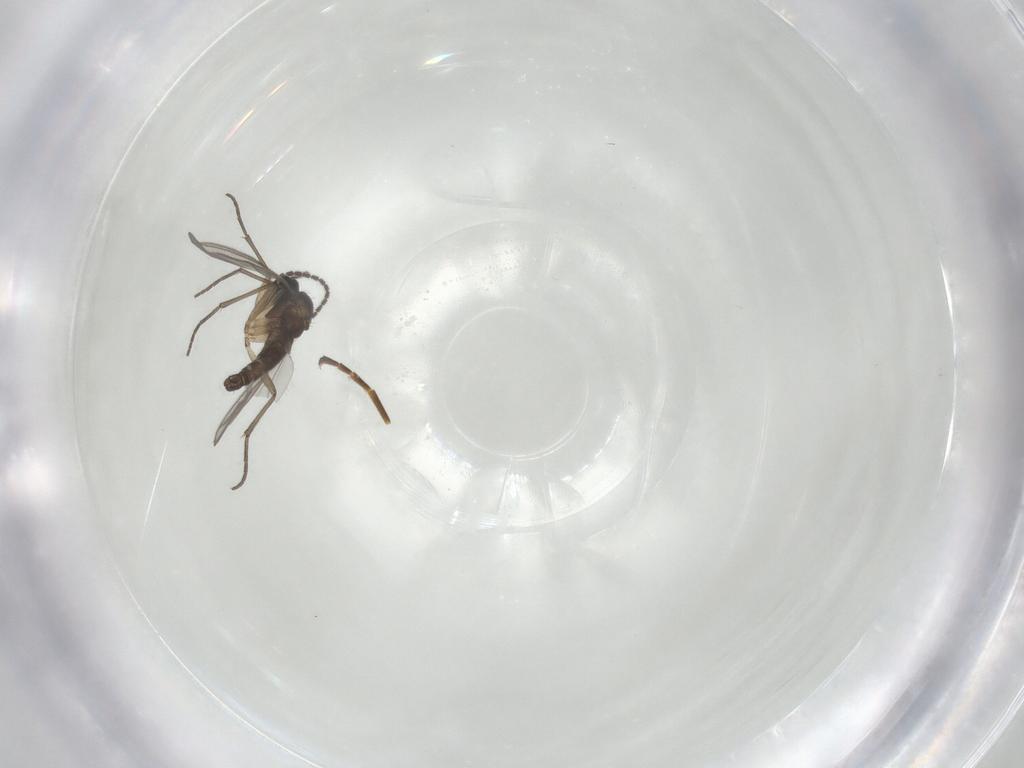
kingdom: Animalia
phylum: Arthropoda
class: Insecta
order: Diptera
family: Sciaridae
